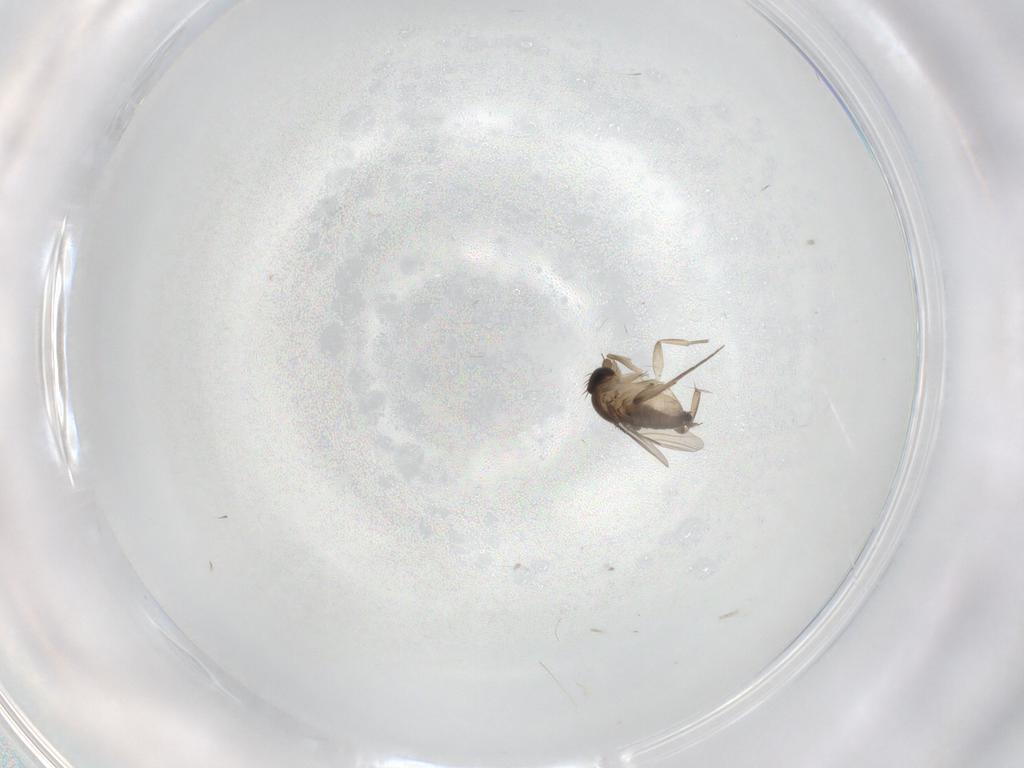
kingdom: Animalia
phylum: Arthropoda
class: Insecta
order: Diptera
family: Phoridae
